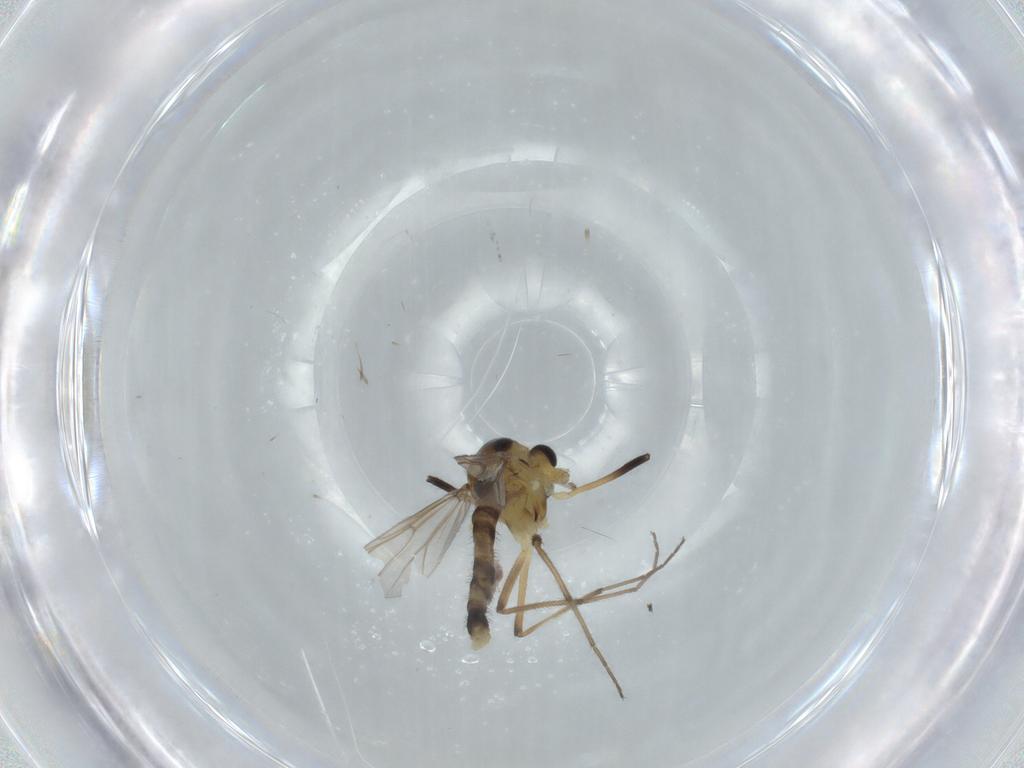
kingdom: Animalia
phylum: Arthropoda
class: Insecta
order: Diptera
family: Chironomidae
